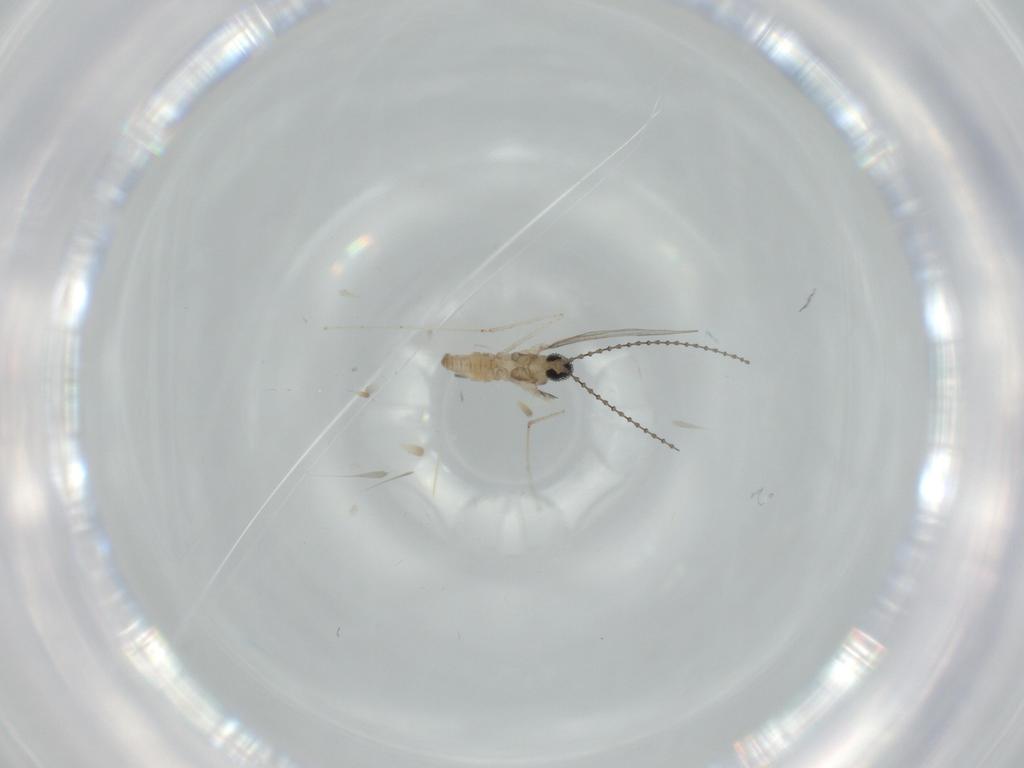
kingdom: Animalia
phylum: Arthropoda
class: Insecta
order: Diptera
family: Cecidomyiidae
